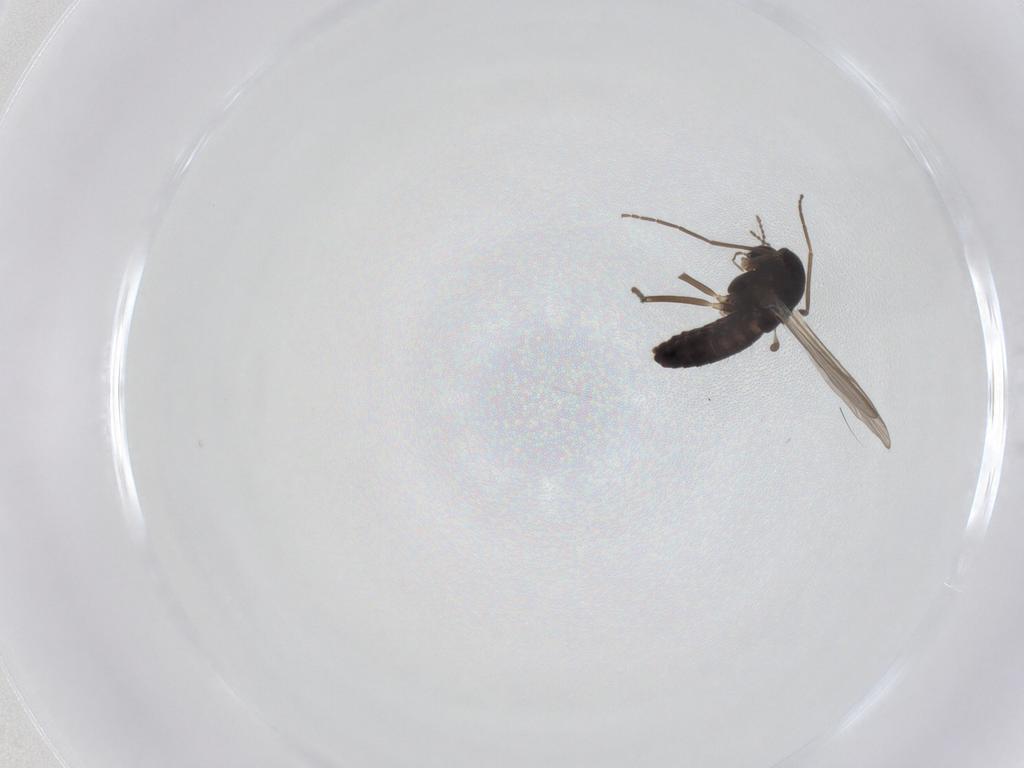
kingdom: Animalia
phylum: Arthropoda
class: Insecta
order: Diptera
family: Chironomidae
